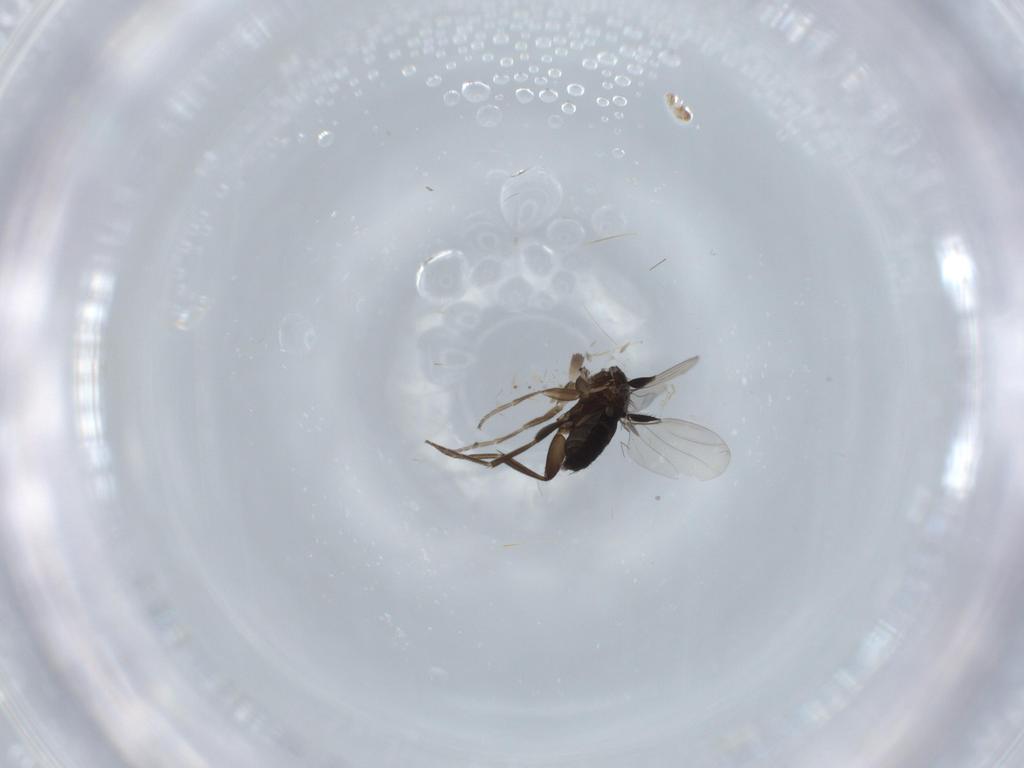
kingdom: Animalia
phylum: Arthropoda
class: Insecta
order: Diptera
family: Phoridae
